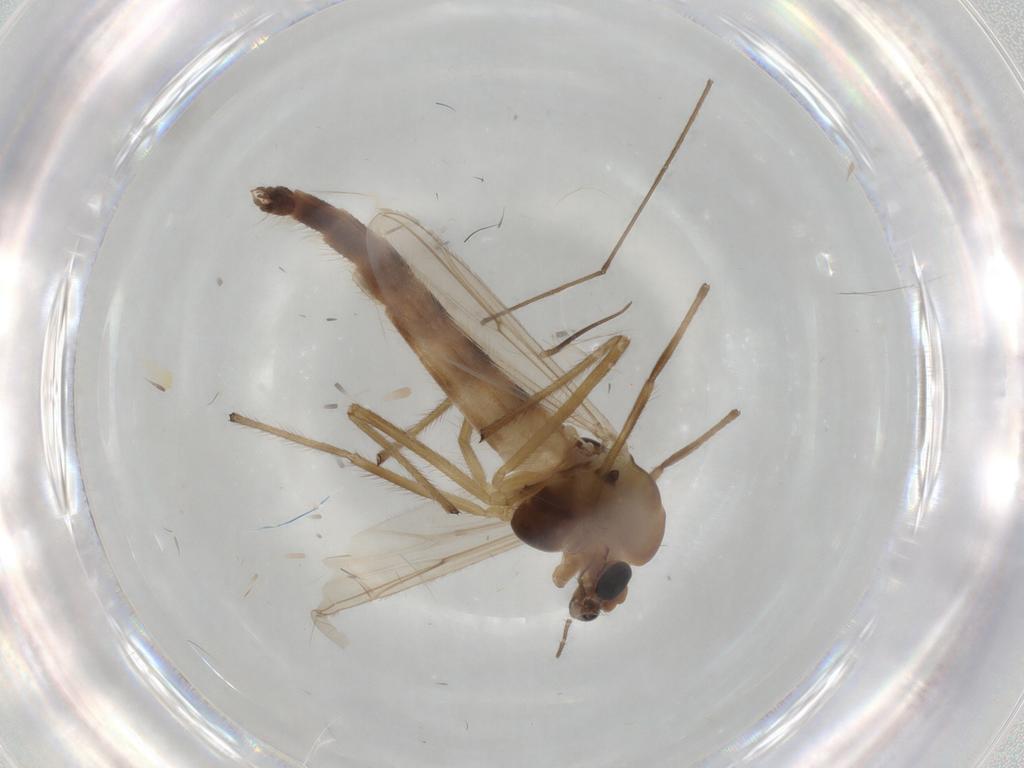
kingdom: Animalia
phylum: Arthropoda
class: Insecta
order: Diptera
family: Chironomidae
